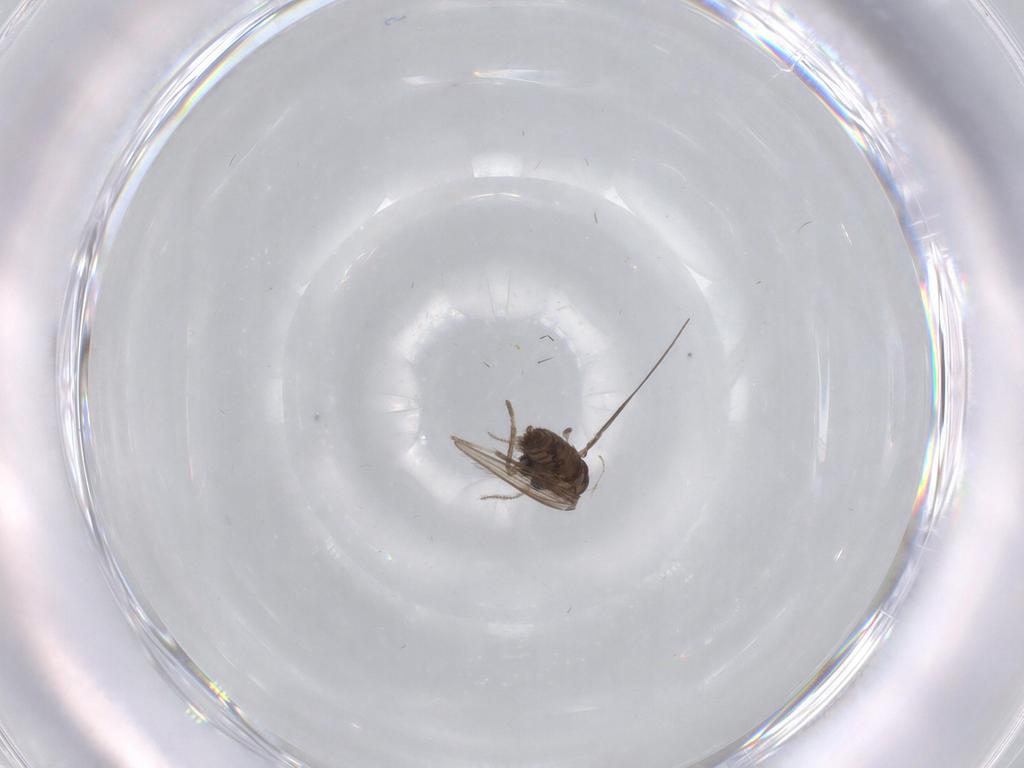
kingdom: Animalia
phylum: Arthropoda
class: Insecta
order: Diptera
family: Psychodidae
